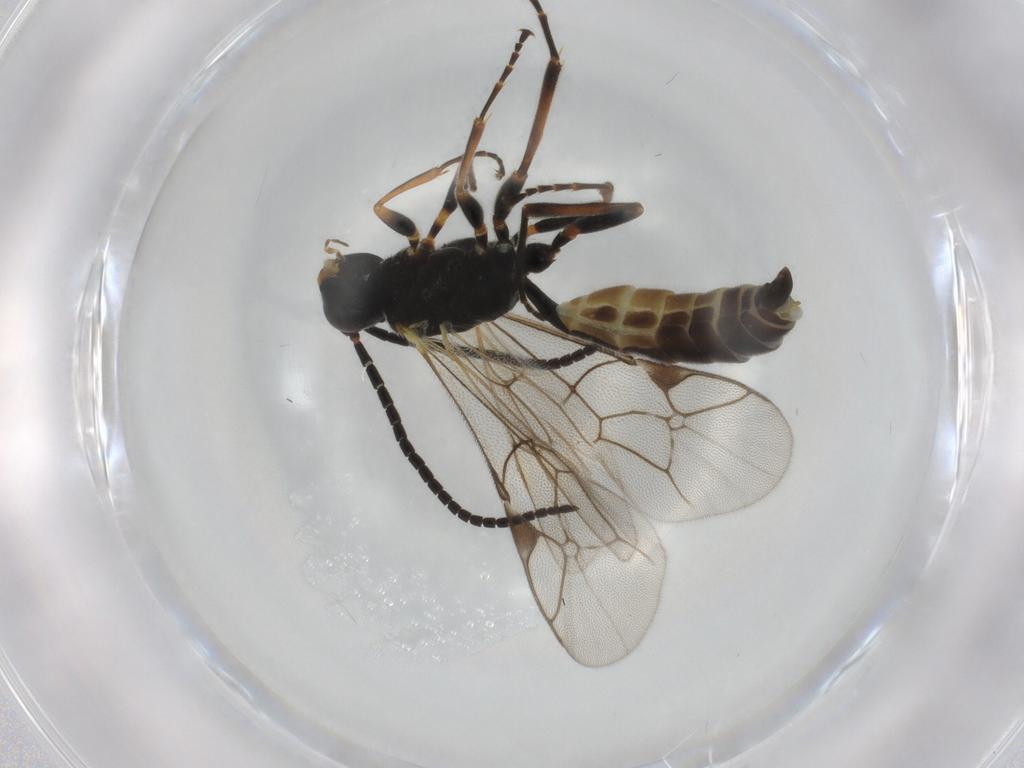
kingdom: Animalia
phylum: Arthropoda
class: Insecta
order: Hymenoptera
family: Ichneumonidae
